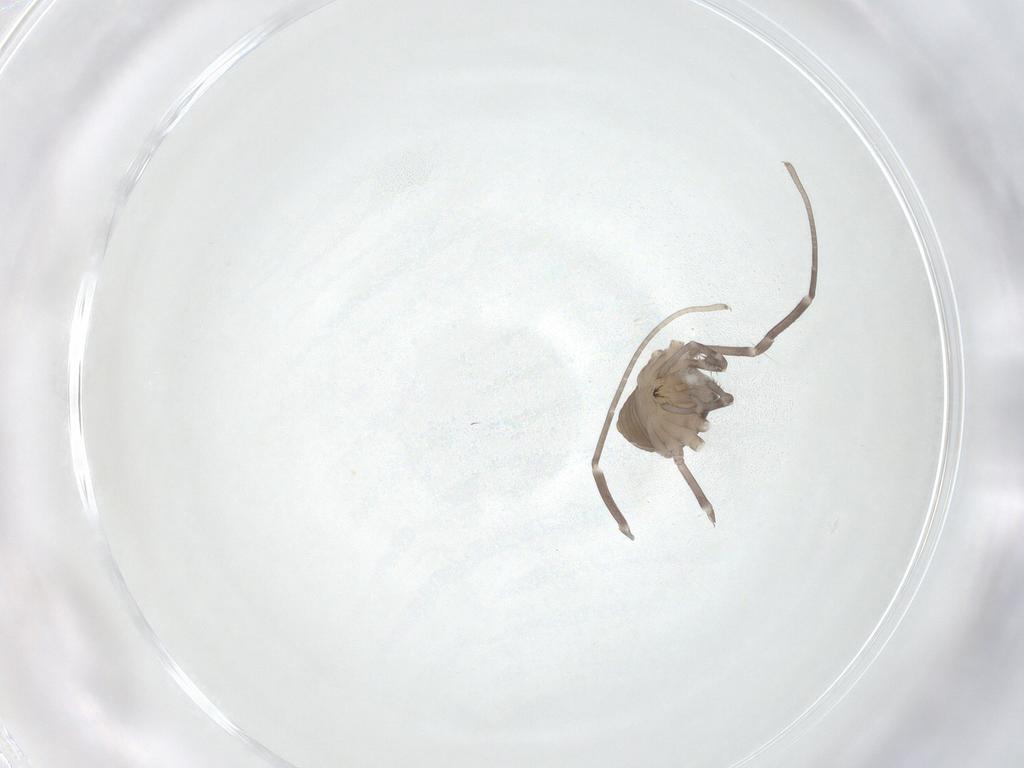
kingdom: Animalia
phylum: Arthropoda
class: Arachnida
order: Opiliones
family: Sclerosomatidae
